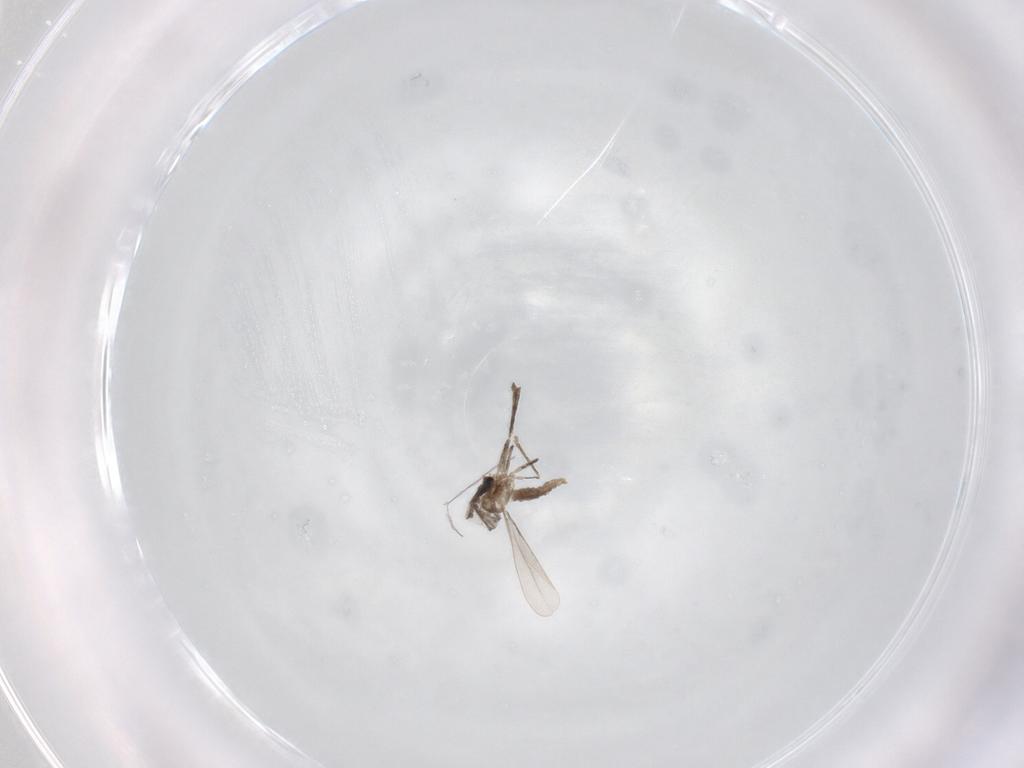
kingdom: Animalia
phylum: Arthropoda
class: Insecta
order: Diptera
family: Cecidomyiidae
